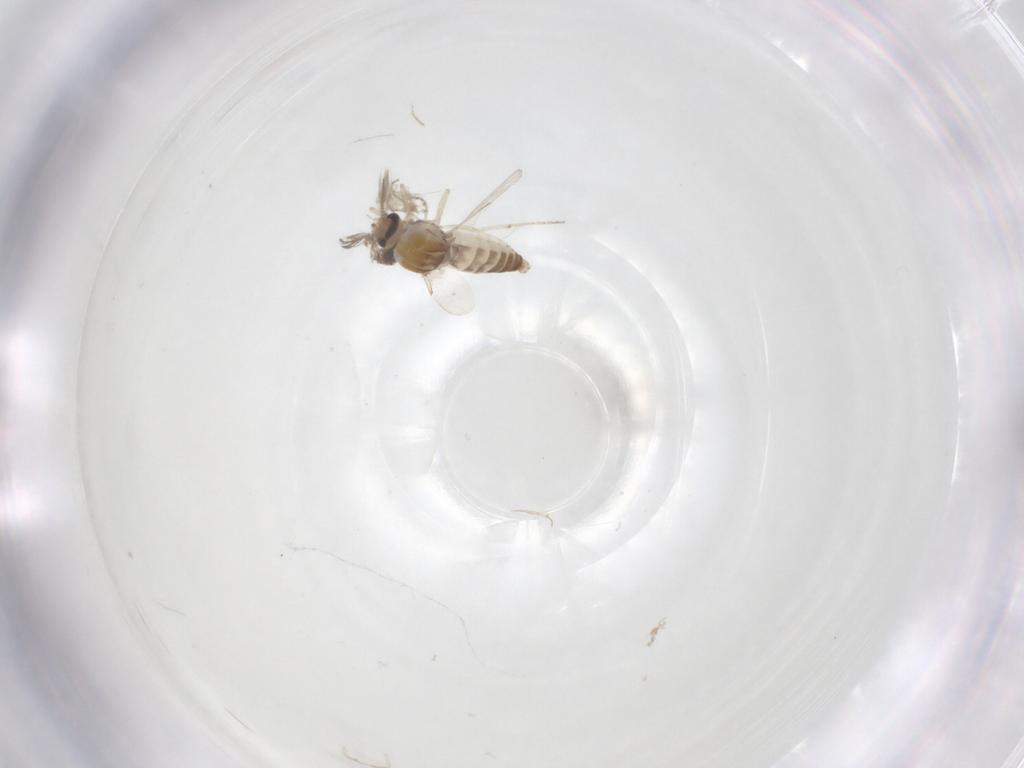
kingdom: Animalia
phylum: Arthropoda
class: Insecta
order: Diptera
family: Ceratopogonidae
